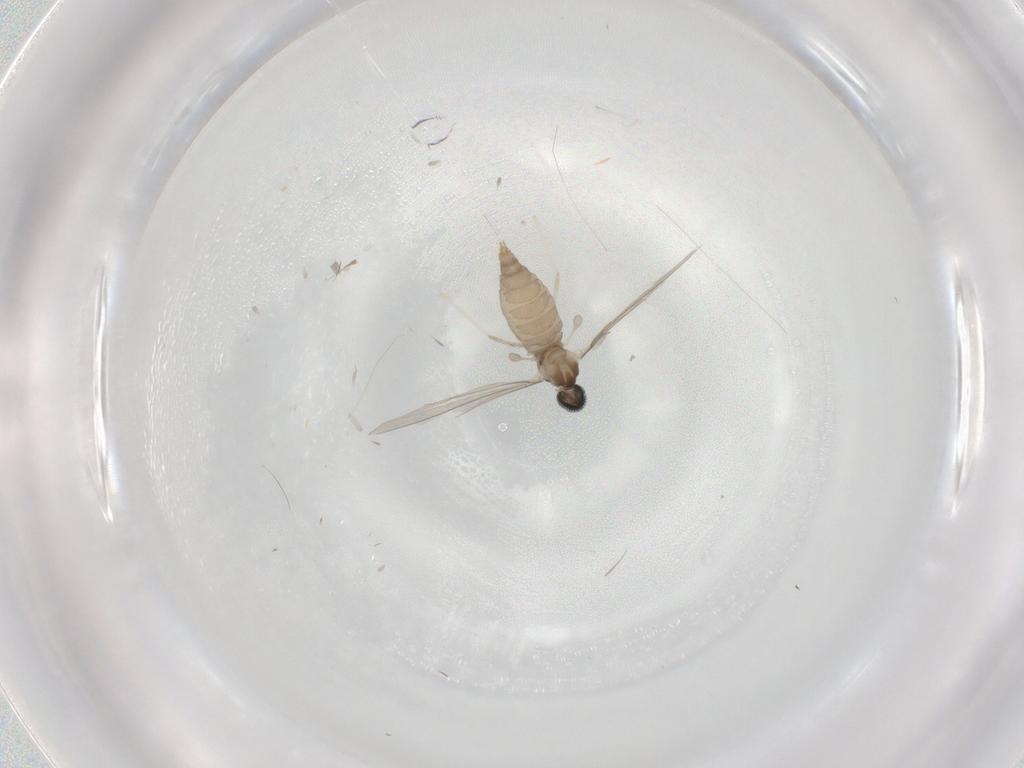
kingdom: Animalia
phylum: Arthropoda
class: Insecta
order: Diptera
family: Cecidomyiidae
